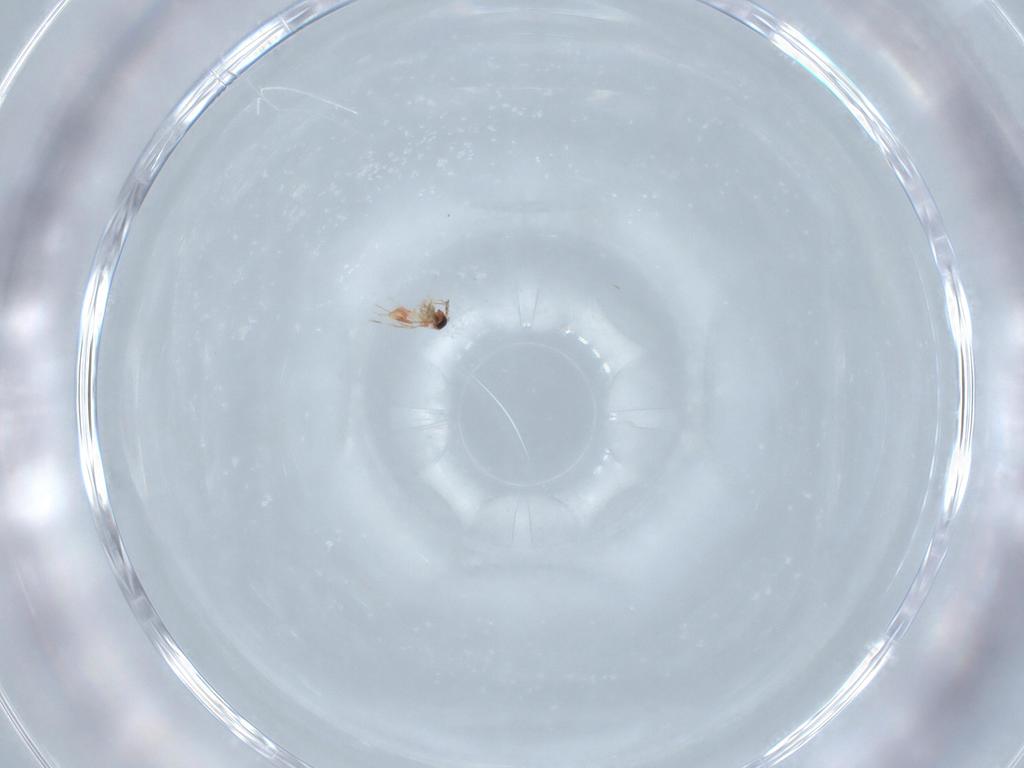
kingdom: Animalia
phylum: Arthropoda
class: Insecta
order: Hymenoptera
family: Trichogrammatidae
